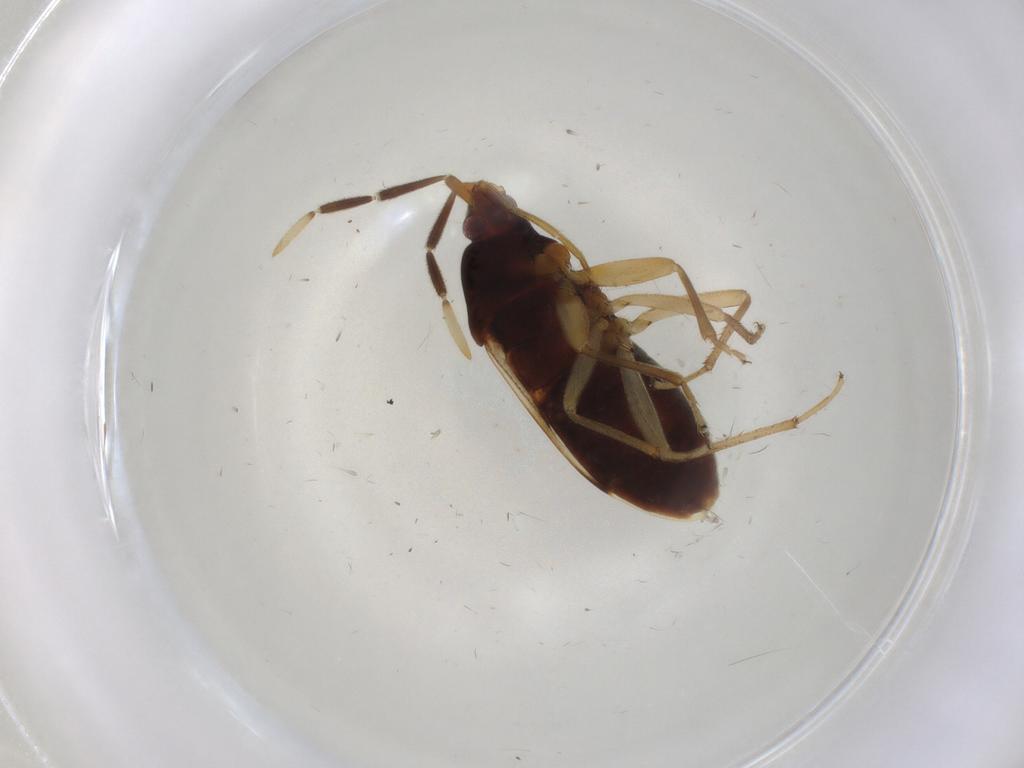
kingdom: Animalia
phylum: Arthropoda
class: Insecta
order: Hemiptera
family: Rhyparochromidae
